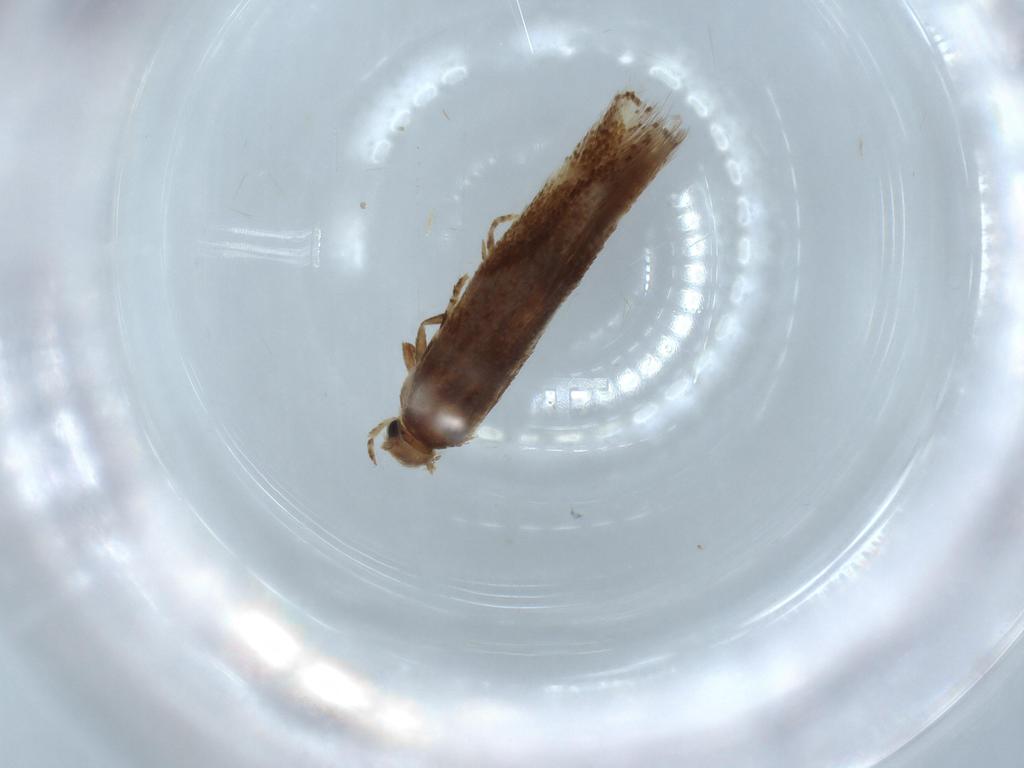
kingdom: Animalia
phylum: Arthropoda
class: Insecta
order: Lepidoptera
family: Elachistidae
